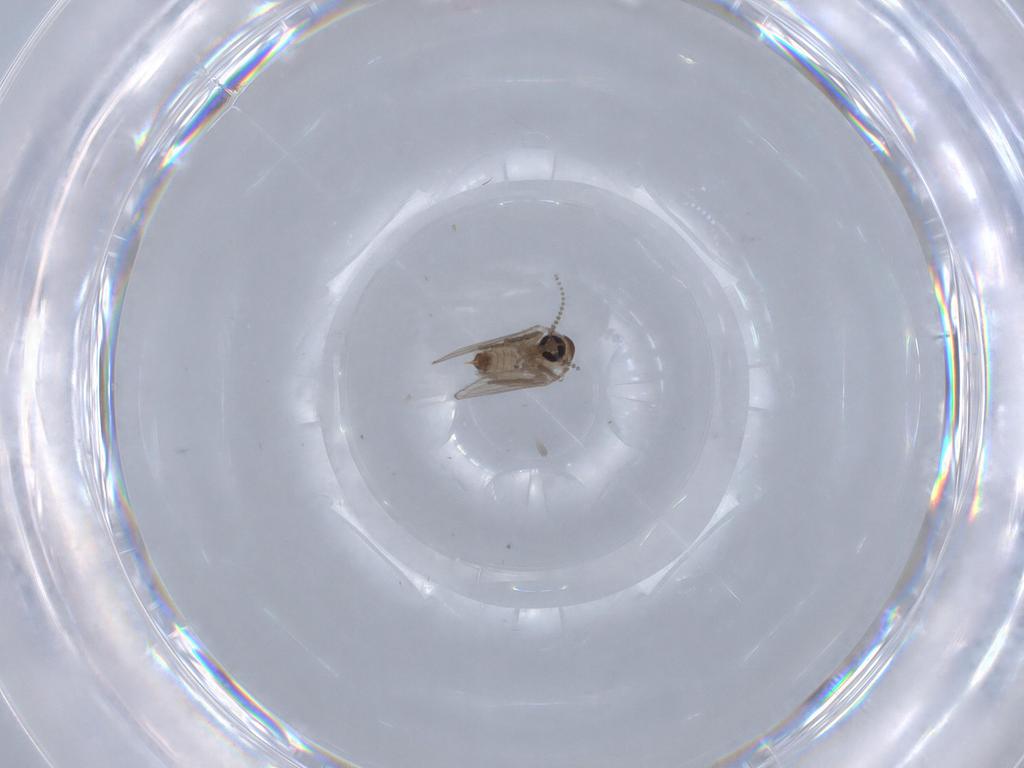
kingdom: Animalia
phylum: Arthropoda
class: Insecta
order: Diptera
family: Psychodidae
